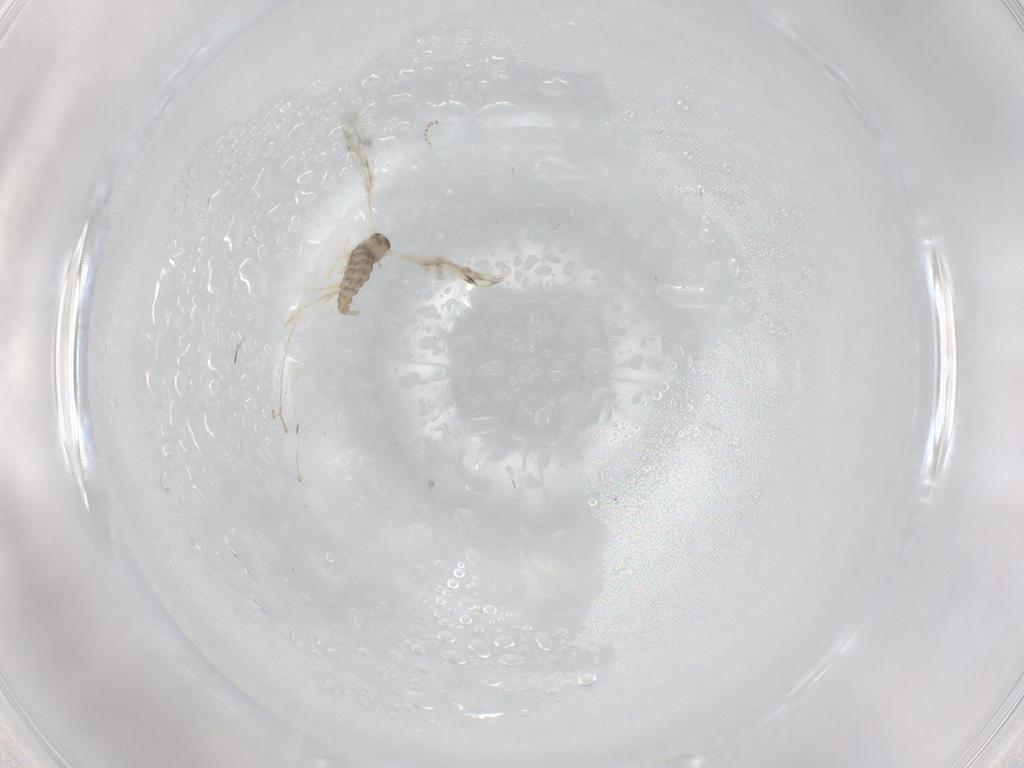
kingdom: Animalia
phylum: Arthropoda
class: Insecta
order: Diptera
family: Cecidomyiidae
